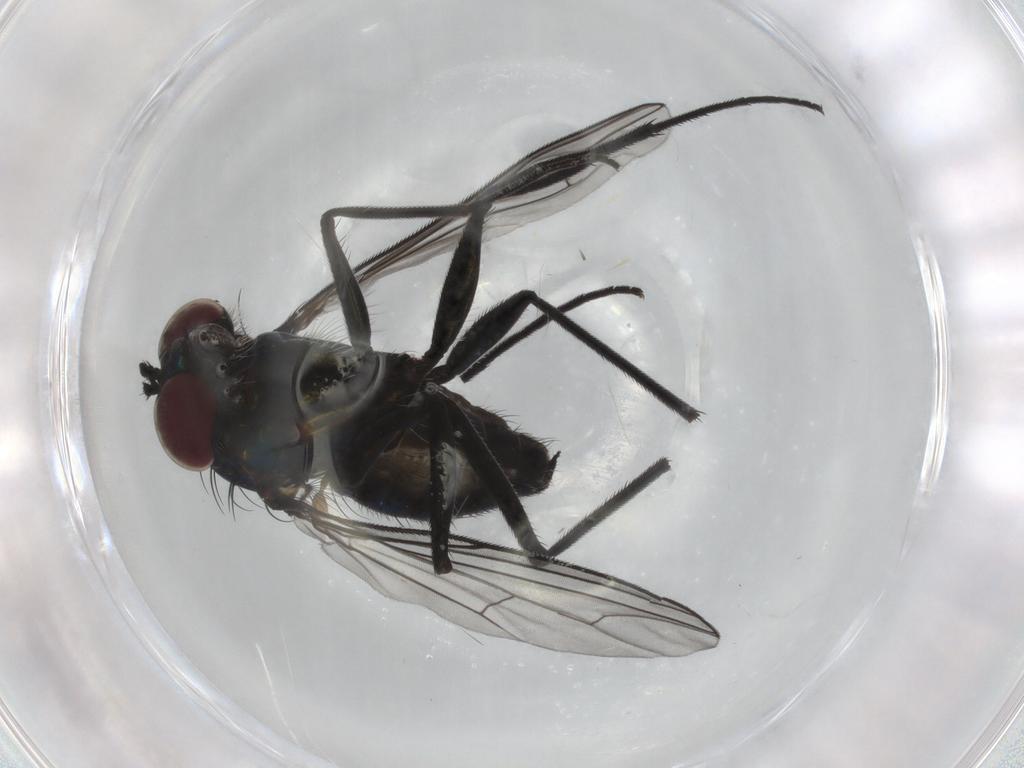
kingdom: Animalia
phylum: Arthropoda
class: Insecta
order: Diptera
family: Dolichopodidae
